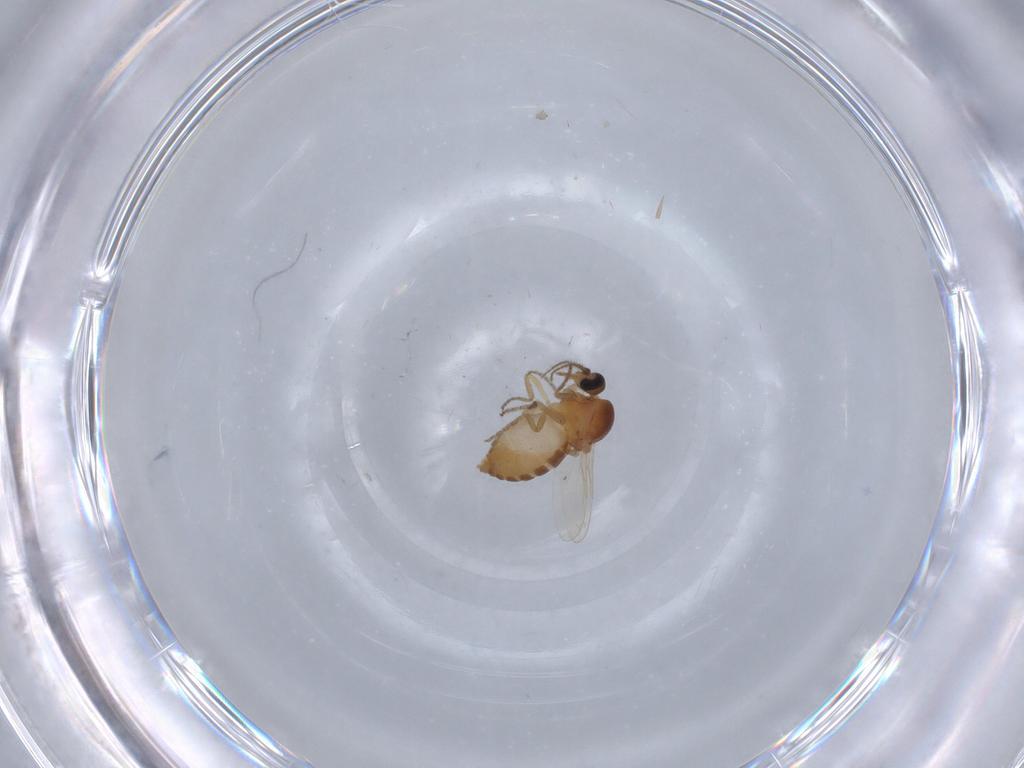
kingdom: Animalia
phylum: Arthropoda
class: Insecta
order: Diptera
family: Ceratopogonidae
